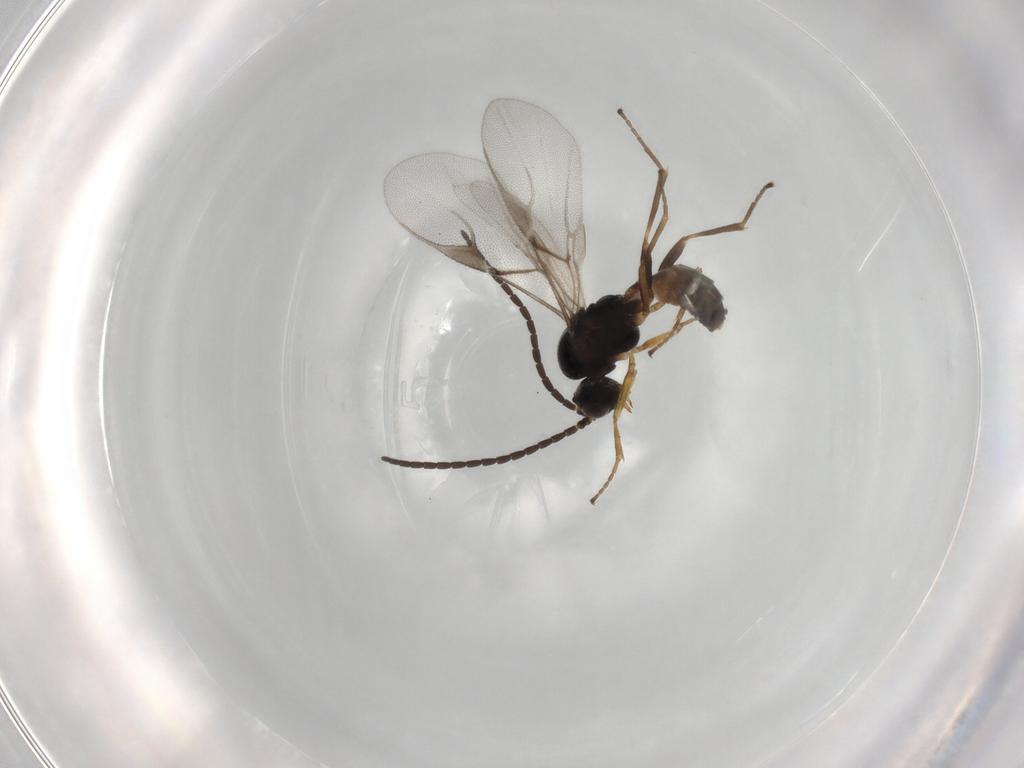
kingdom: Animalia
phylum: Arthropoda
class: Insecta
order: Hymenoptera
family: Braconidae
